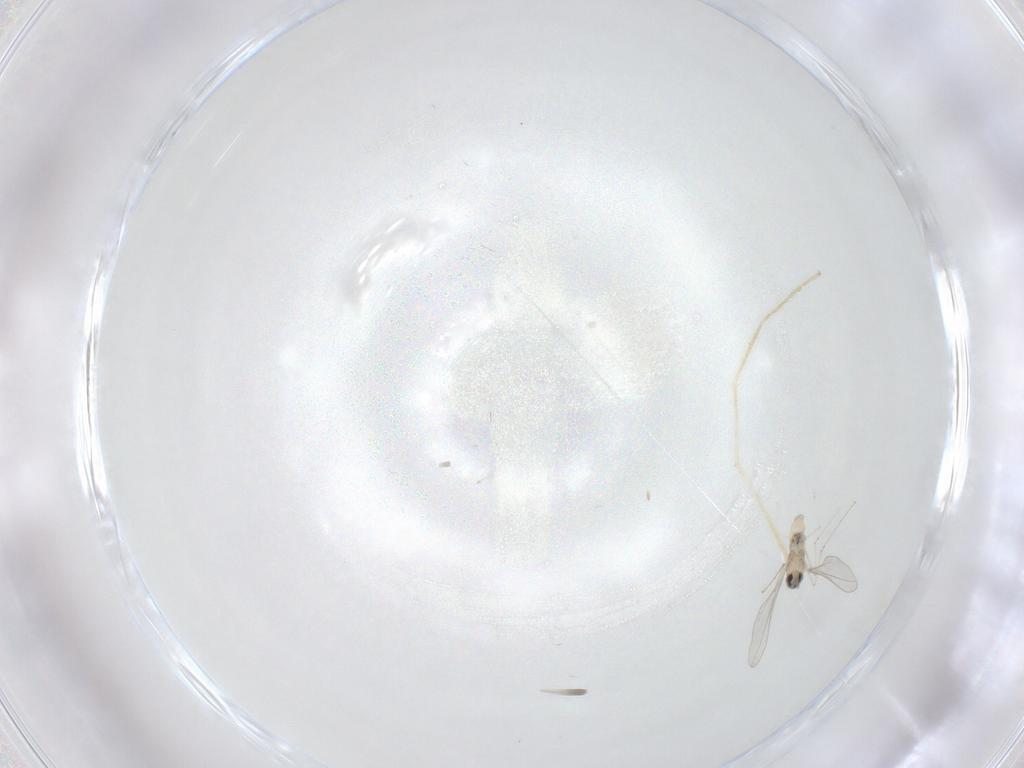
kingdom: Animalia
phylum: Arthropoda
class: Insecta
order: Diptera
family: Cecidomyiidae
